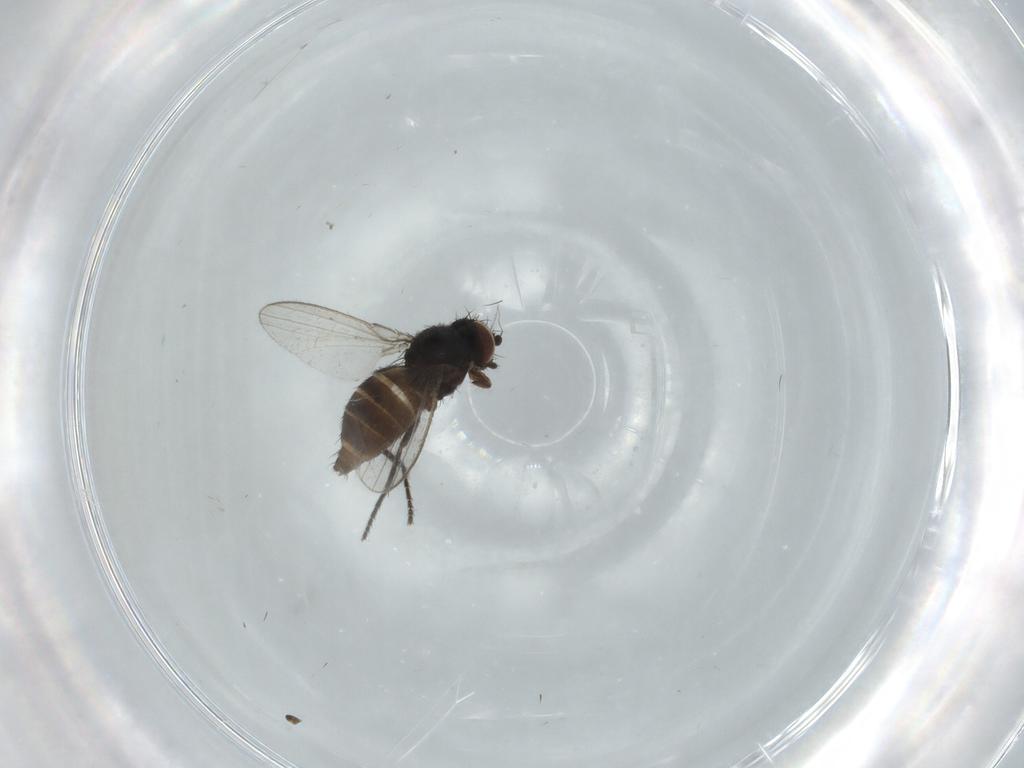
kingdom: Animalia
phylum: Arthropoda
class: Insecta
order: Diptera
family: Milichiidae
